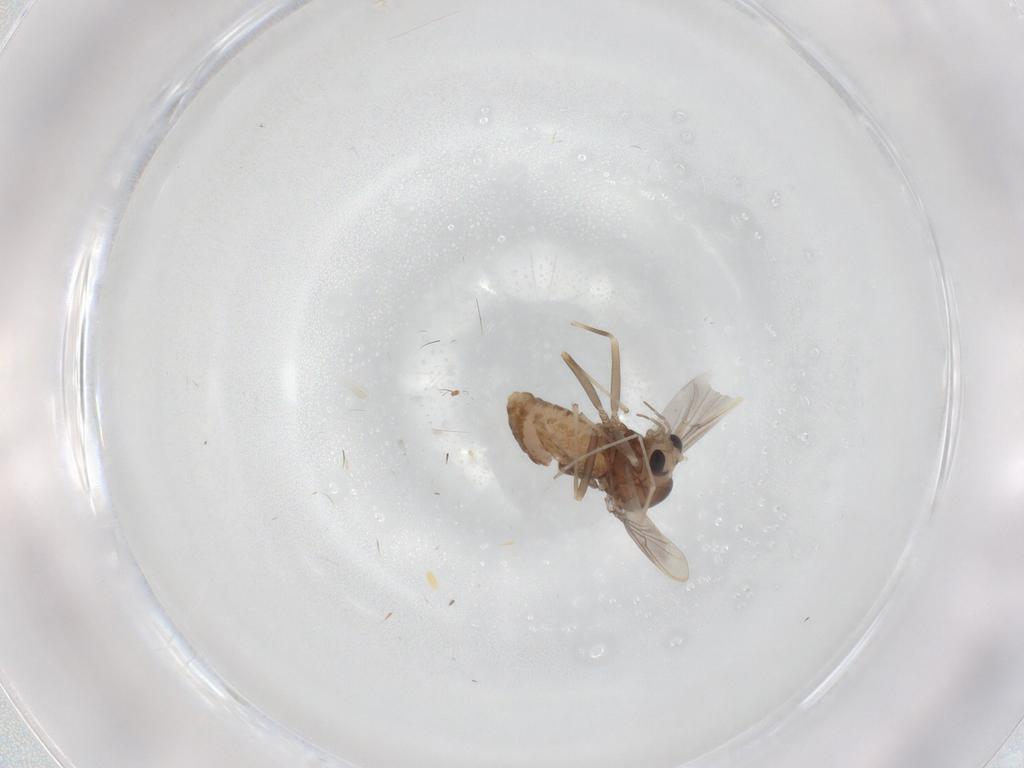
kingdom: Animalia
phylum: Arthropoda
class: Insecta
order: Diptera
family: Chironomidae
